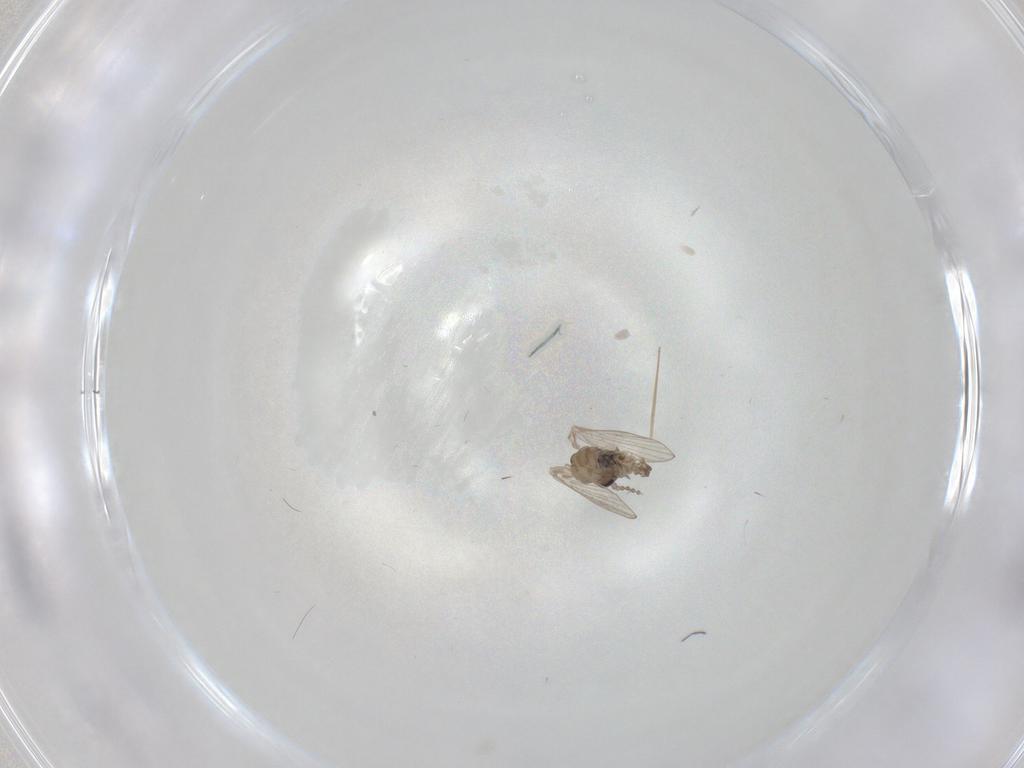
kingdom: Animalia
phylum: Arthropoda
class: Insecta
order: Diptera
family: Psychodidae
